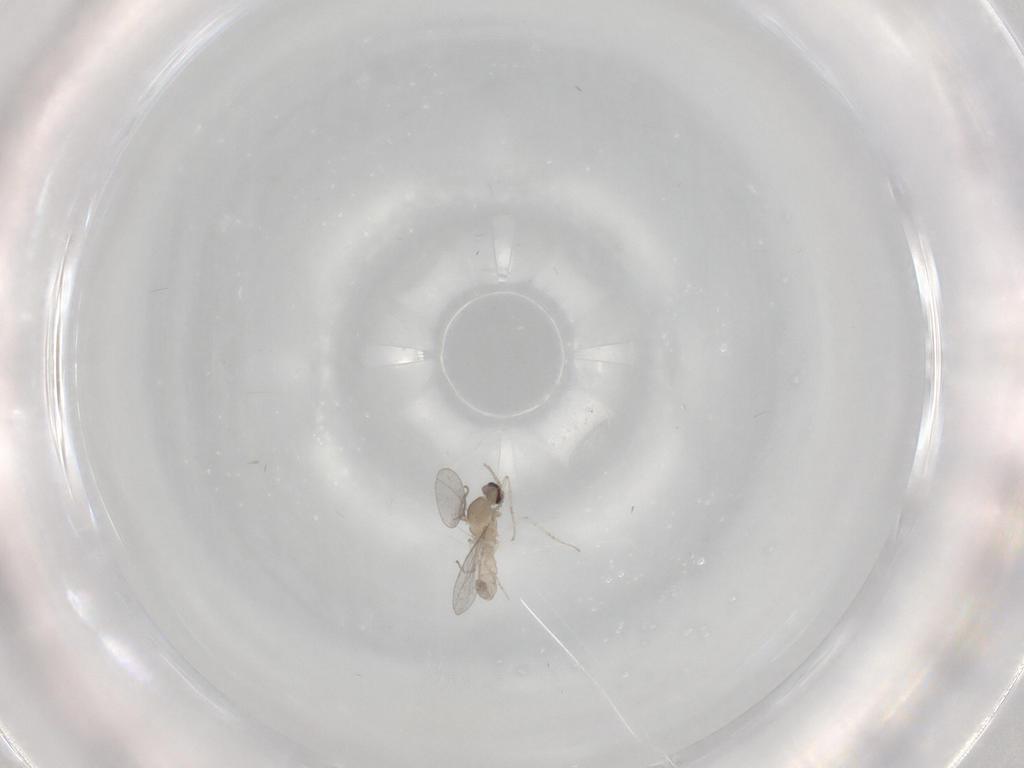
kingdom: Animalia
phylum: Arthropoda
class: Insecta
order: Diptera
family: Cecidomyiidae
